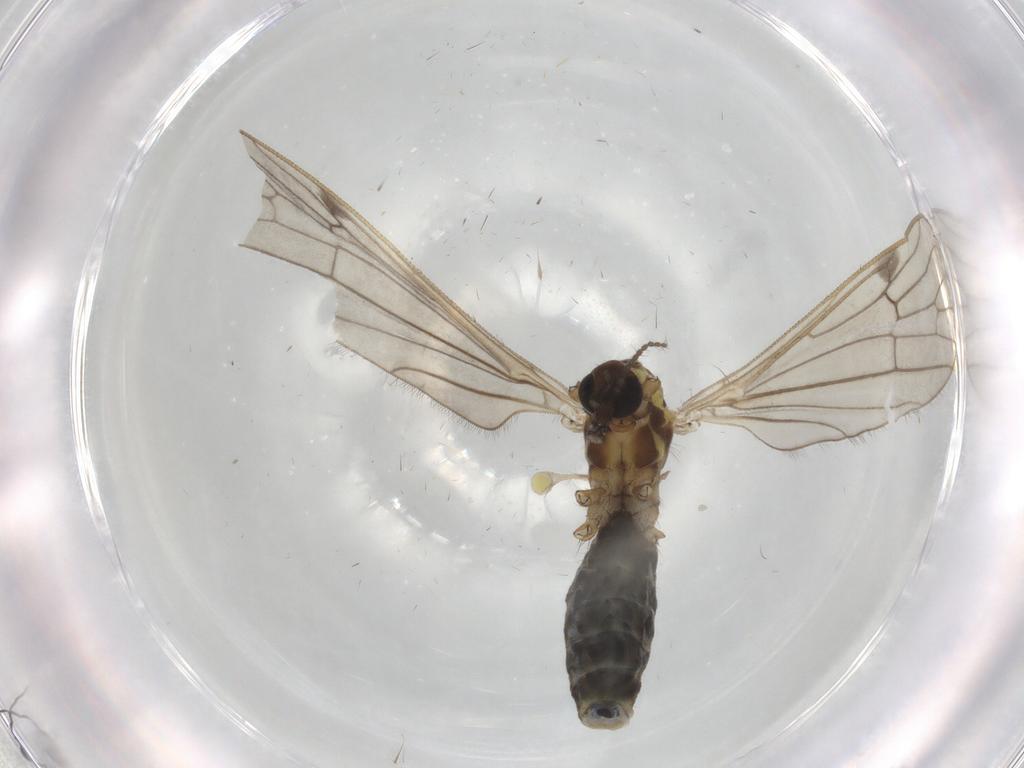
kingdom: Animalia
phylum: Arthropoda
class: Insecta
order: Diptera
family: Limoniidae
